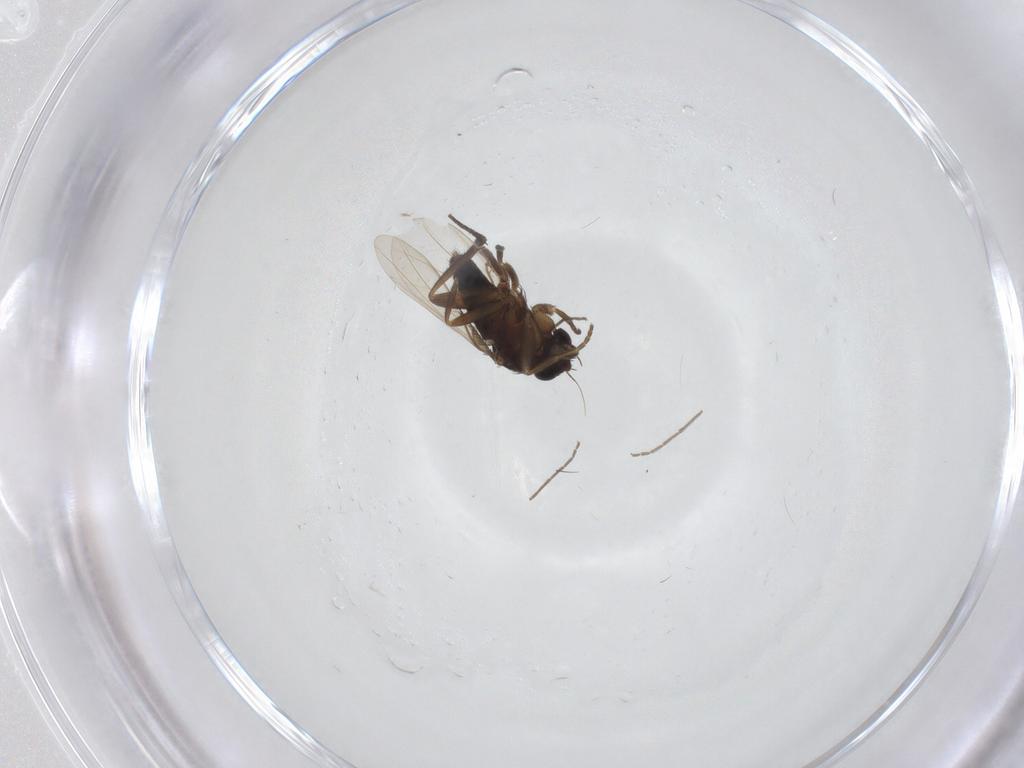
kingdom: Animalia
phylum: Arthropoda
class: Insecta
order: Diptera
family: Phoridae
